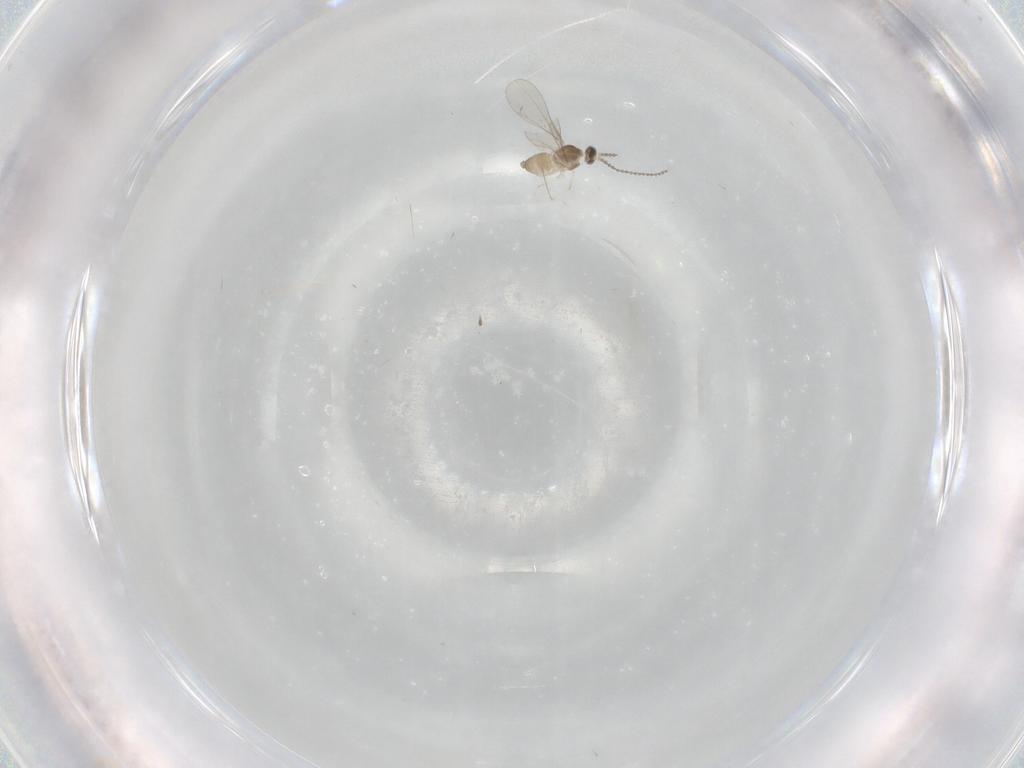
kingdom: Animalia
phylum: Arthropoda
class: Insecta
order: Diptera
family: Cecidomyiidae
